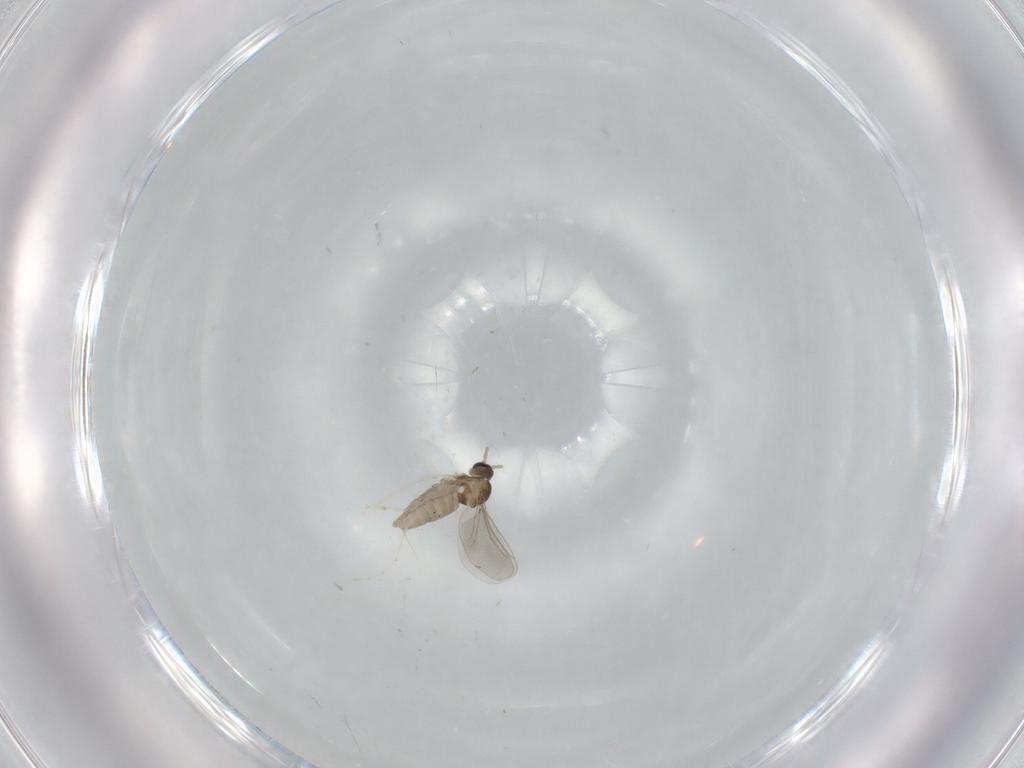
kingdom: Animalia
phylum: Arthropoda
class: Insecta
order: Diptera
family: Cecidomyiidae
